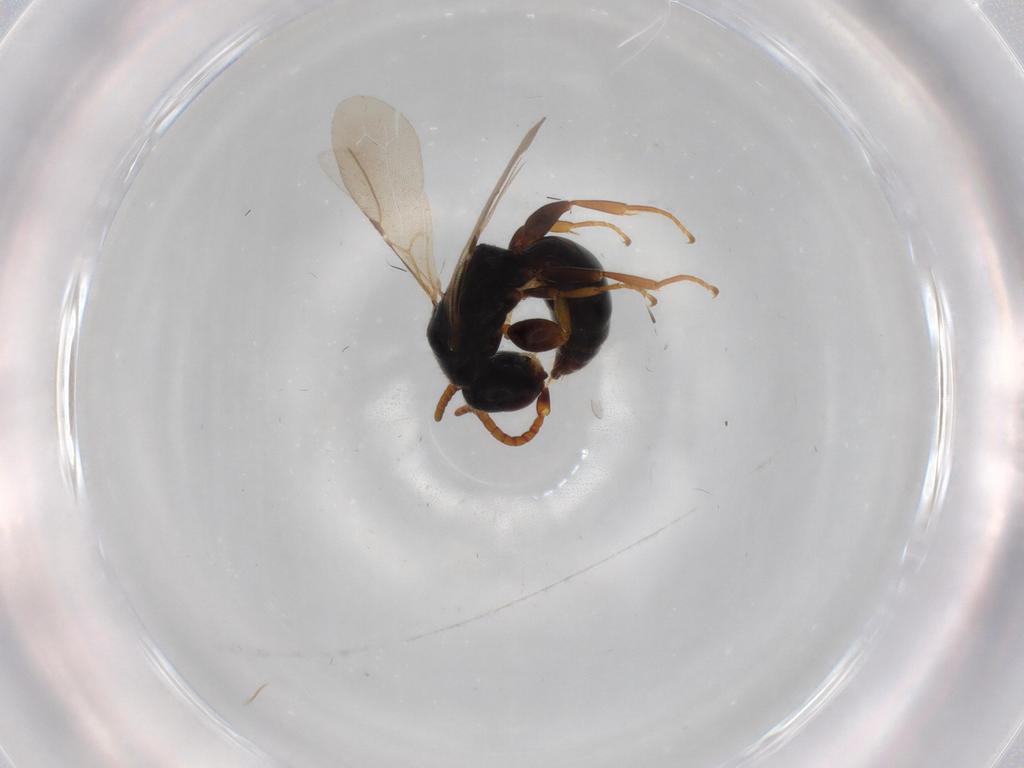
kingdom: Animalia
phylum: Arthropoda
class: Insecta
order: Hymenoptera
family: Bethylidae
